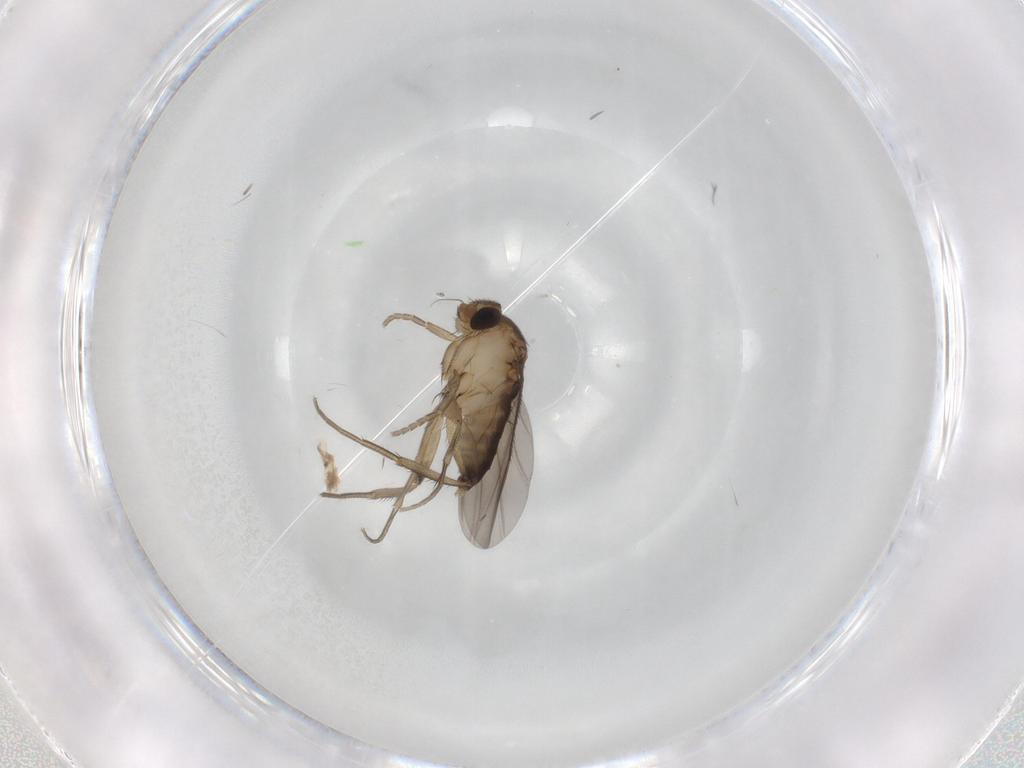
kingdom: Animalia
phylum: Arthropoda
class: Insecta
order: Diptera
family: Phoridae
